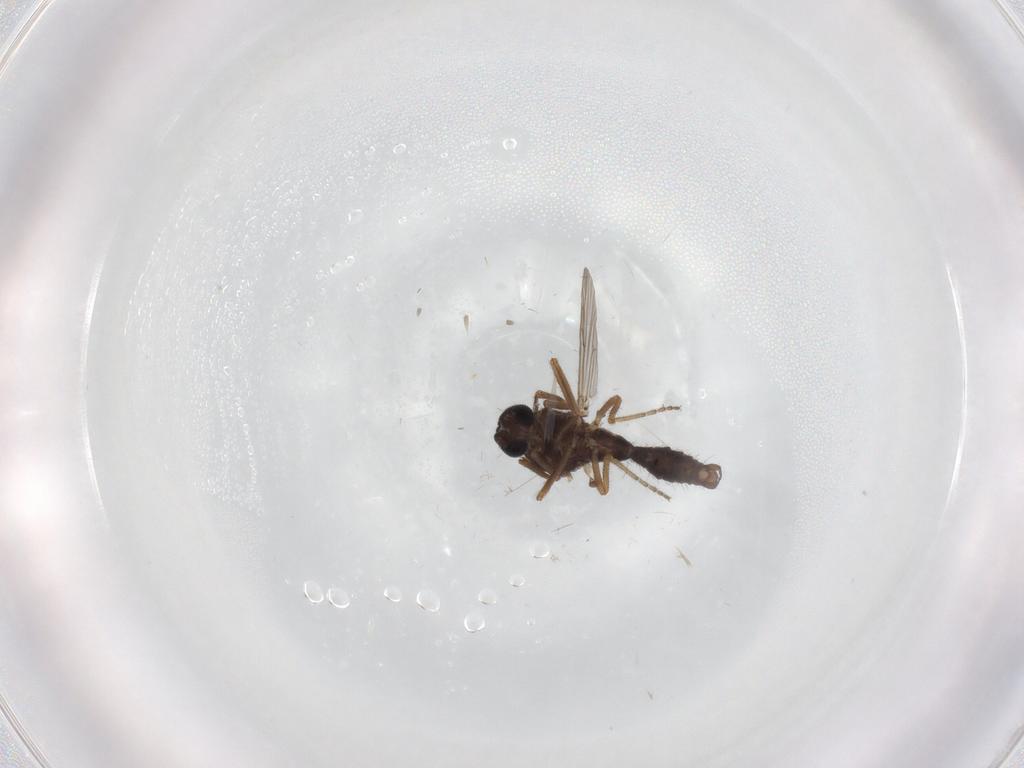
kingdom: Animalia
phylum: Arthropoda
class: Insecta
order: Diptera
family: Ceratopogonidae
